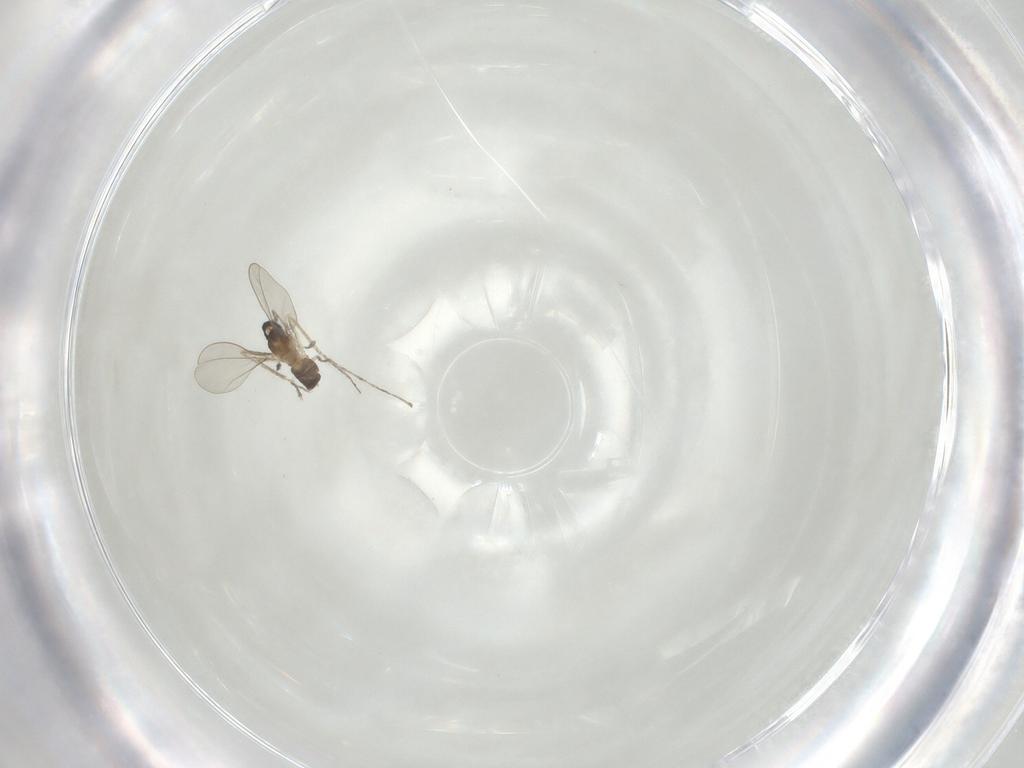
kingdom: Animalia
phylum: Arthropoda
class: Insecta
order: Diptera
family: Cecidomyiidae
